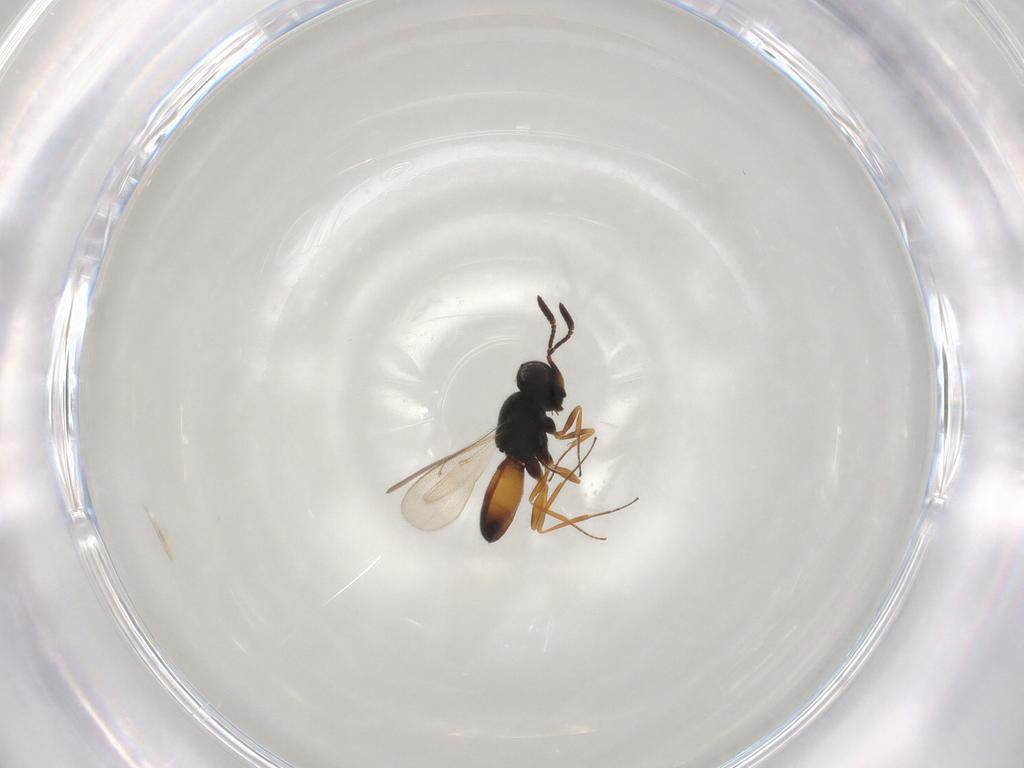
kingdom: Animalia
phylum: Arthropoda
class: Insecta
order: Hymenoptera
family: Scelionidae
